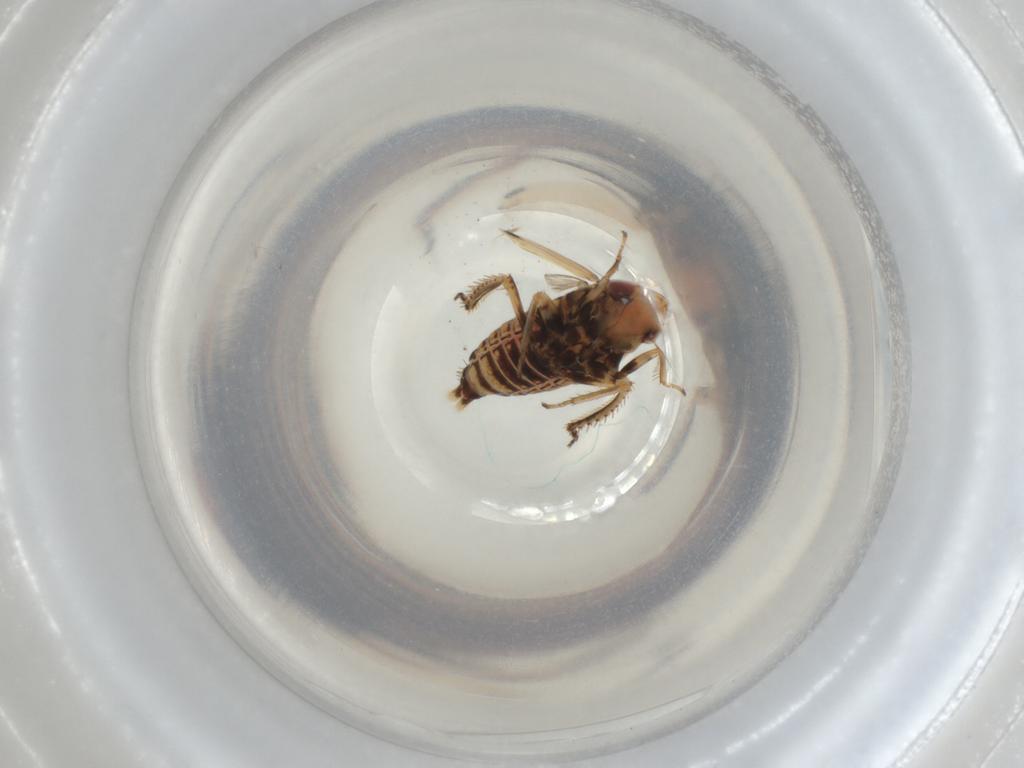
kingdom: Animalia
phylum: Arthropoda
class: Insecta
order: Hemiptera
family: Cicadellidae
